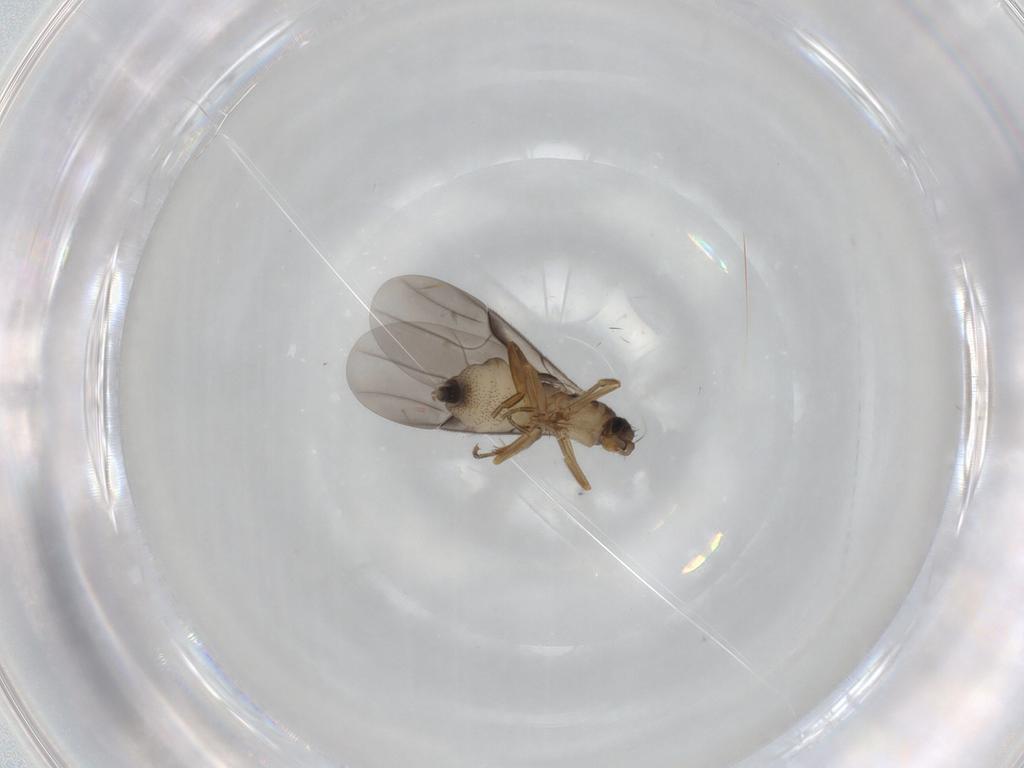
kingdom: Animalia
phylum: Arthropoda
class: Insecta
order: Diptera
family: Phoridae
